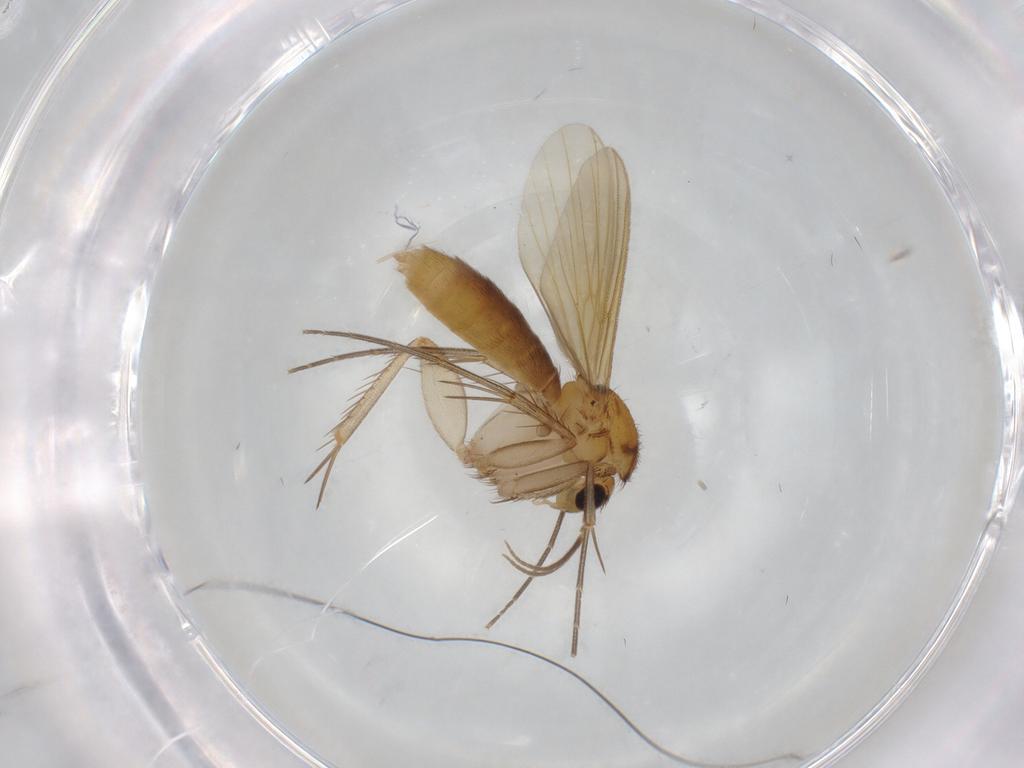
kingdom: Animalia
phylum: Arthropoda
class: Insecta
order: Diptera
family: Mycetophilidae
